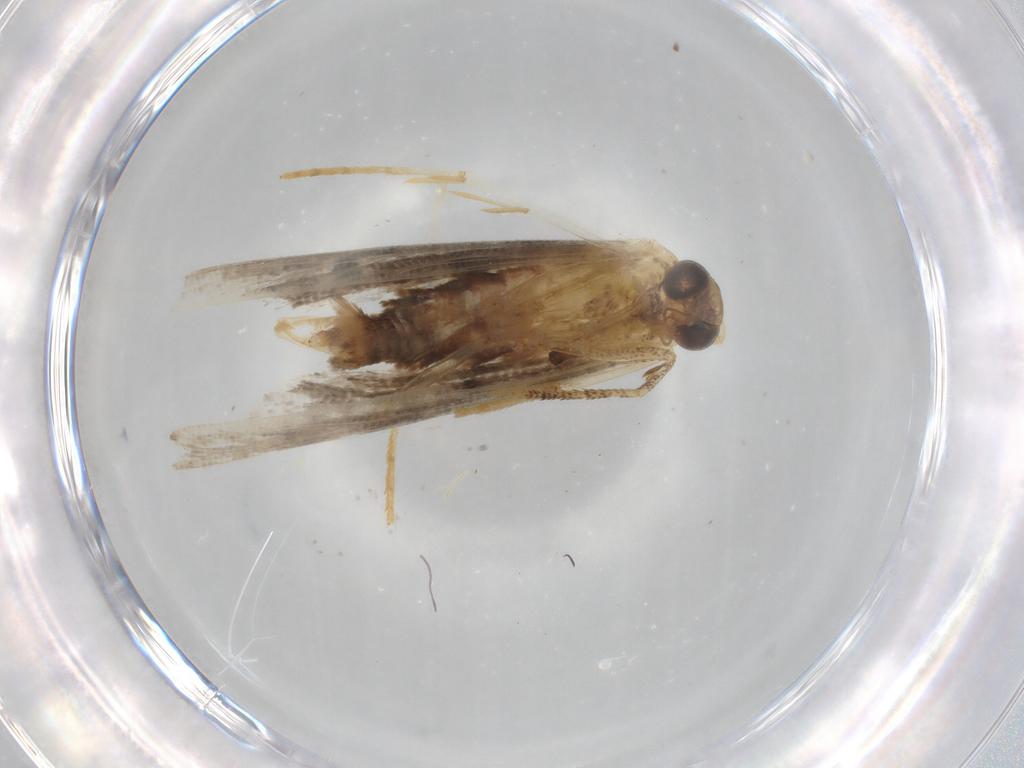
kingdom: Animalia
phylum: Arthropoda
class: Insecta
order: Lepidoptera
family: Erebidae
